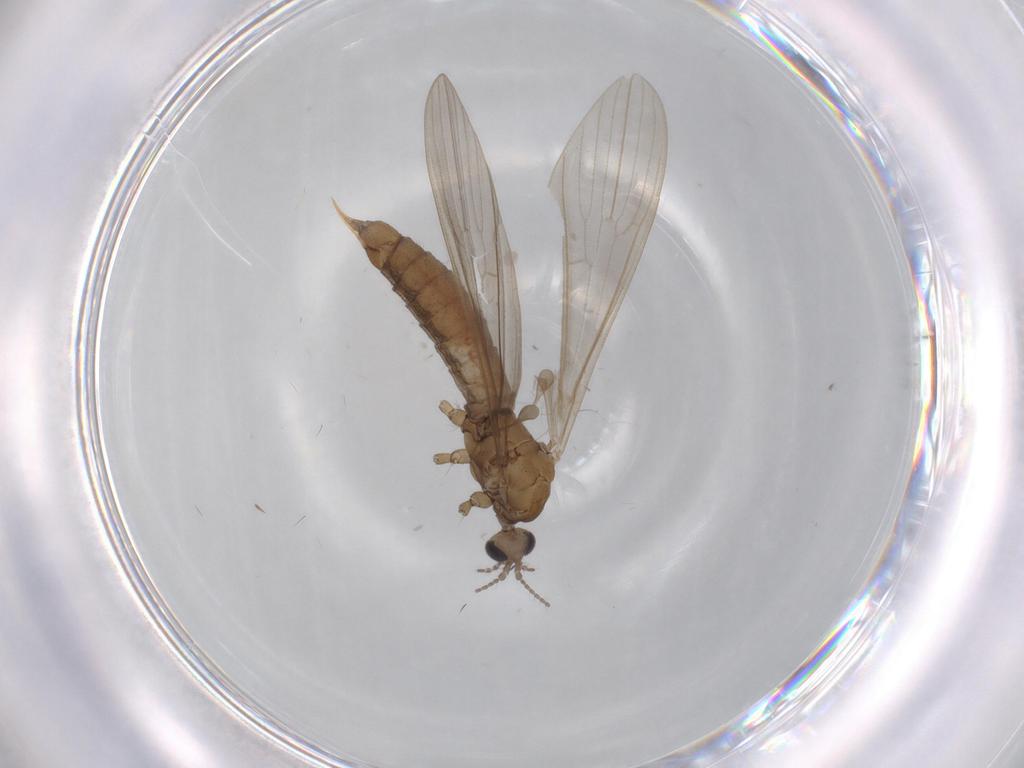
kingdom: Animalia
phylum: Arthropoda
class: Insecta
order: Diptera
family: Limoniidae
